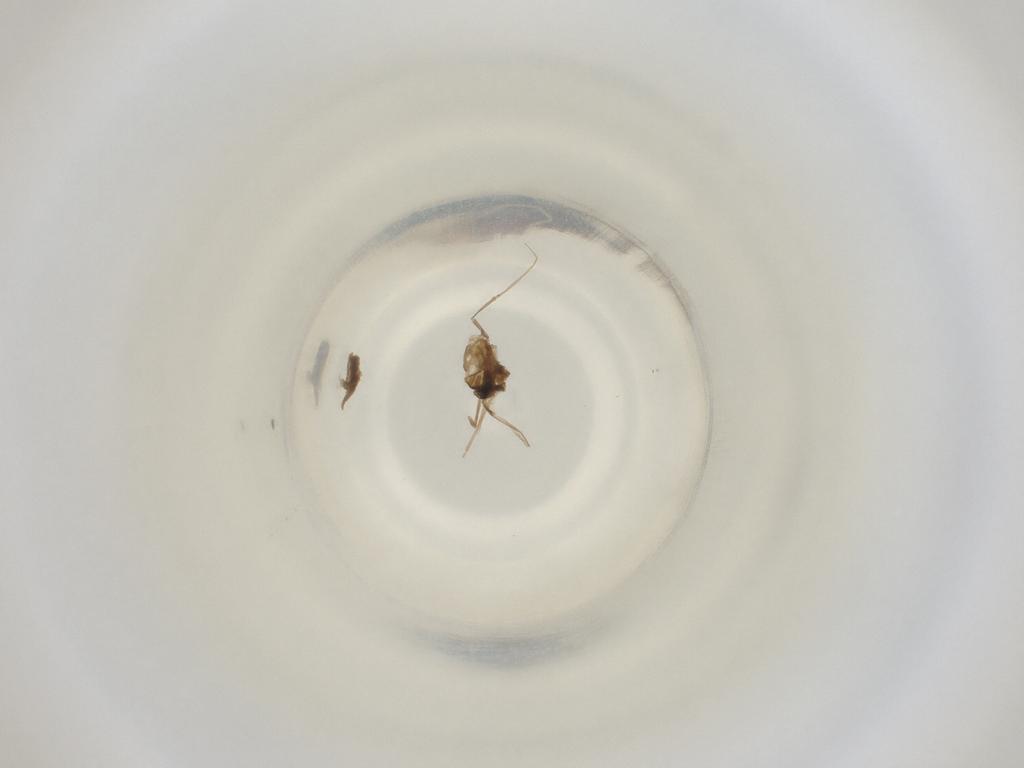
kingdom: Animalia
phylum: Arthropoda
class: Insecta
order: Diptera
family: Cecidomyiidae
